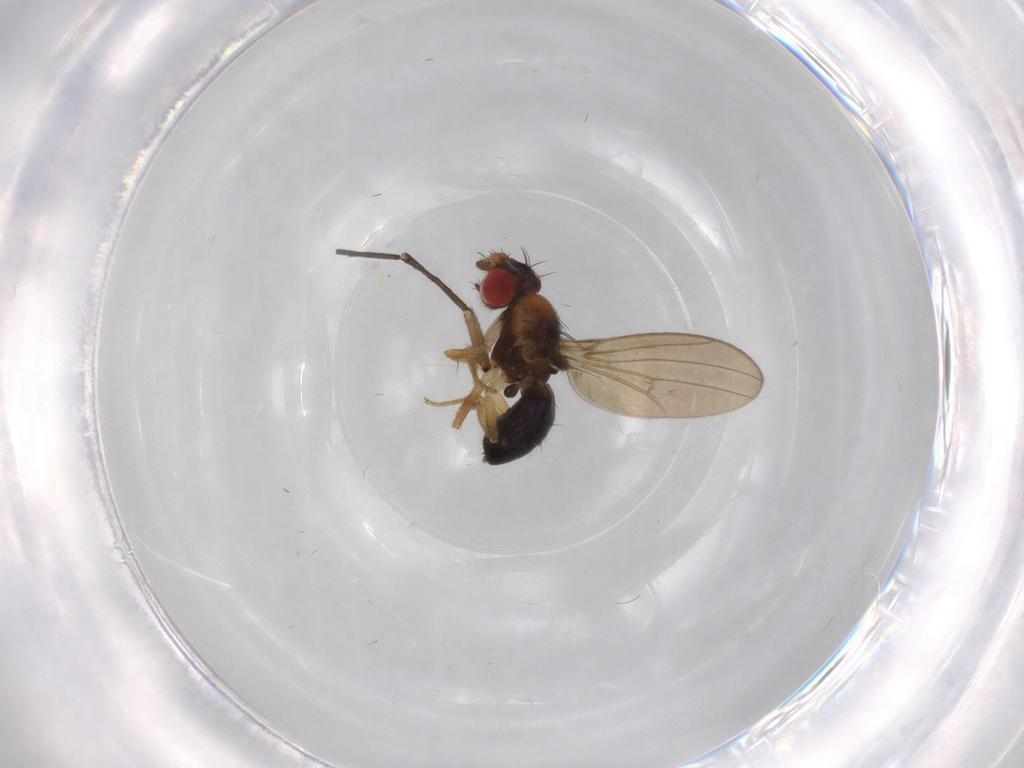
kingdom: Animalia
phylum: Arthropoda
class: Insecta
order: Diptera
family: Drosophilidae
